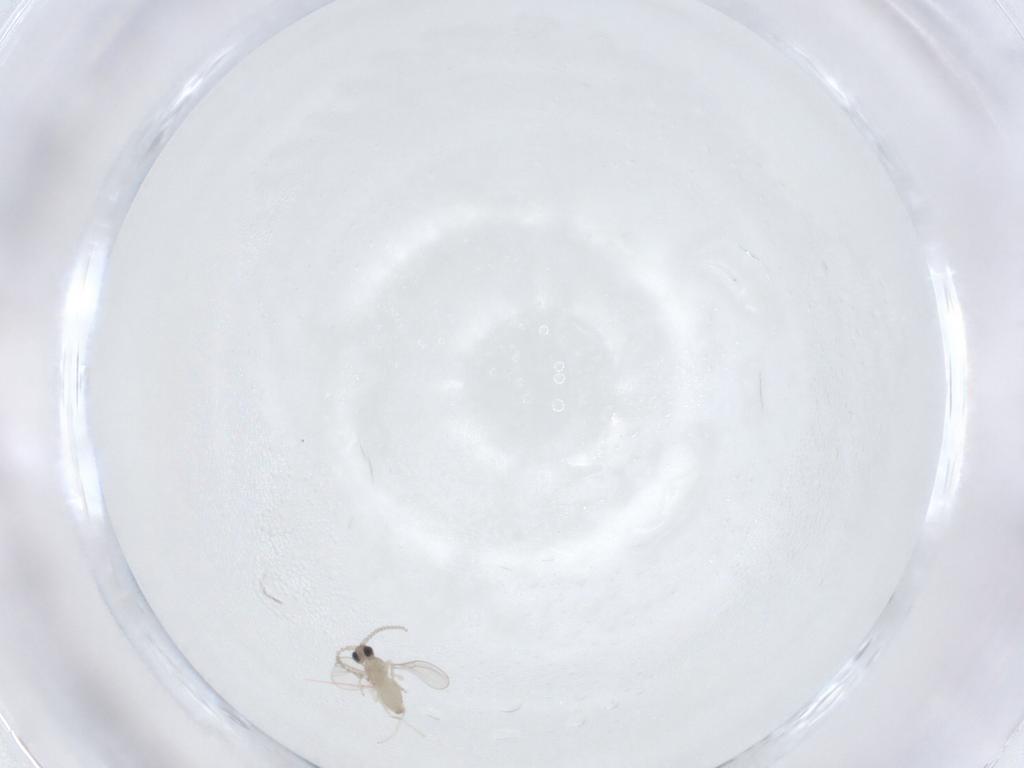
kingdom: Animalia
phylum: Arthropoda
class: Insecta
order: Diptera
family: Cecidomyiidae
